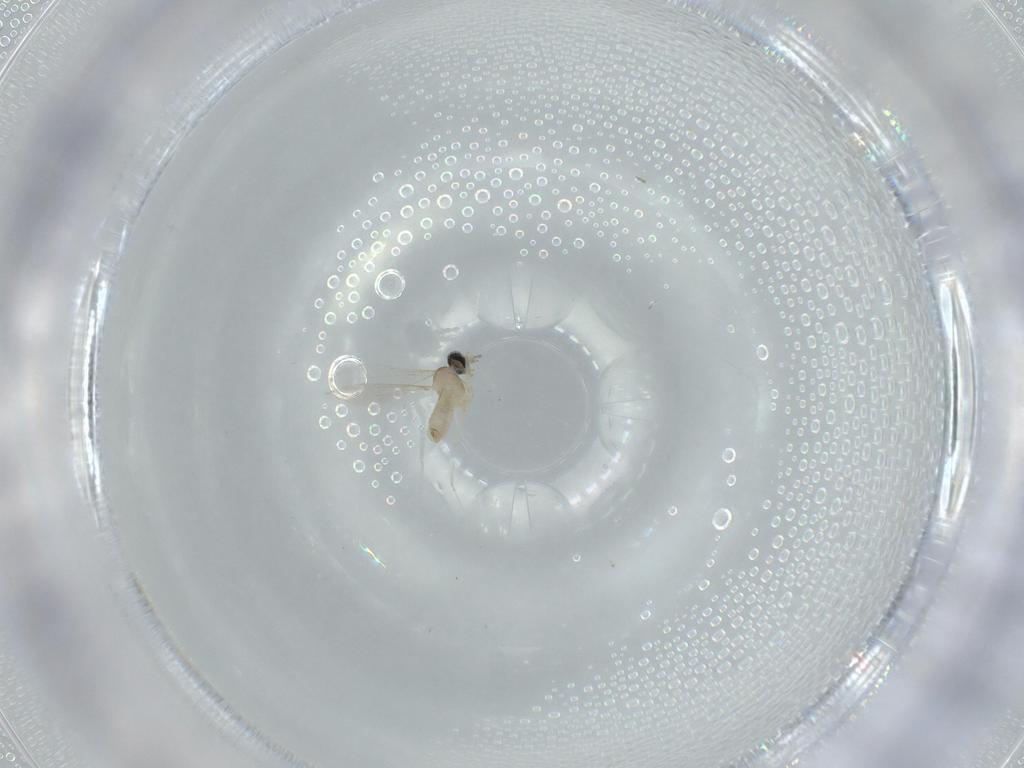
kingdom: Animalia
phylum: Arthropoda
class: Insecta
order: Diptera
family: Cecidomyiidae
